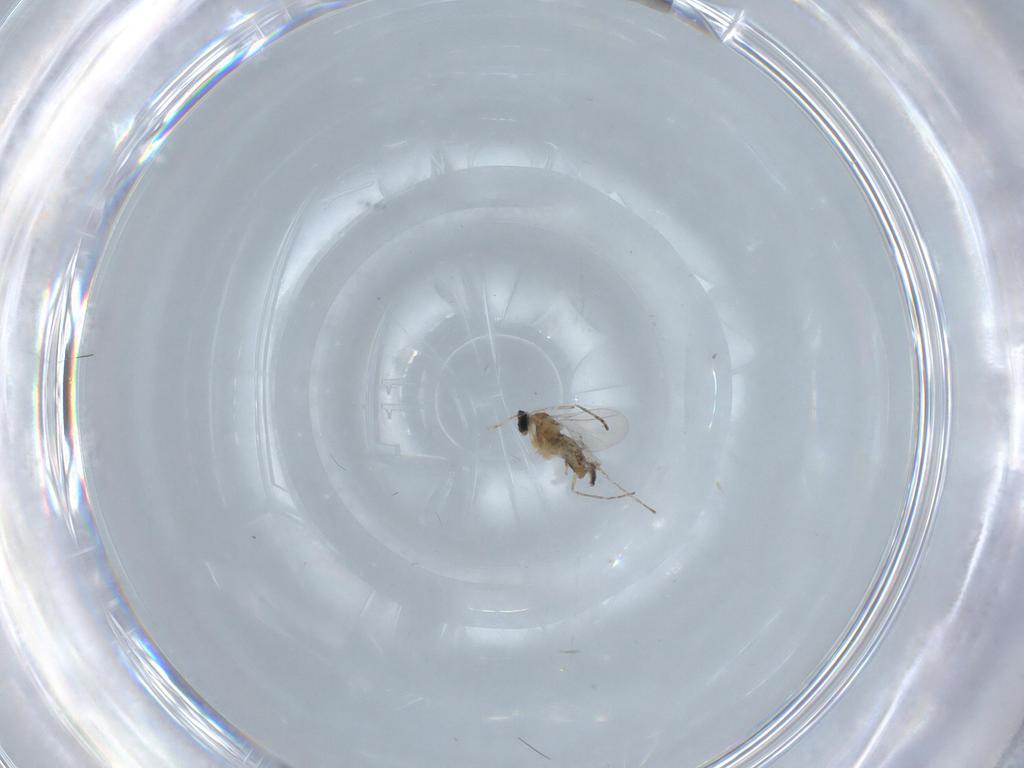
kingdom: Animalia
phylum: Arthropoda
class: Insecta
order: Diptera
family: Cecidomyiidae
